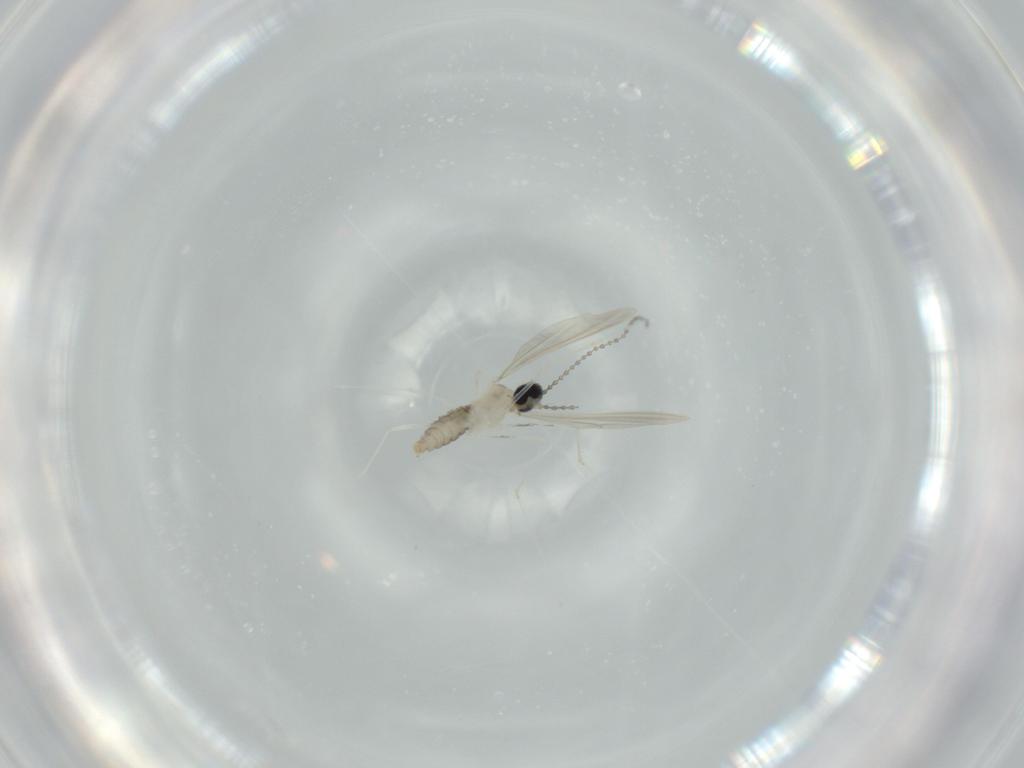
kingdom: Animalia
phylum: Arthropoda
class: Insecta
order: Diptera
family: Cecidomyiidae
